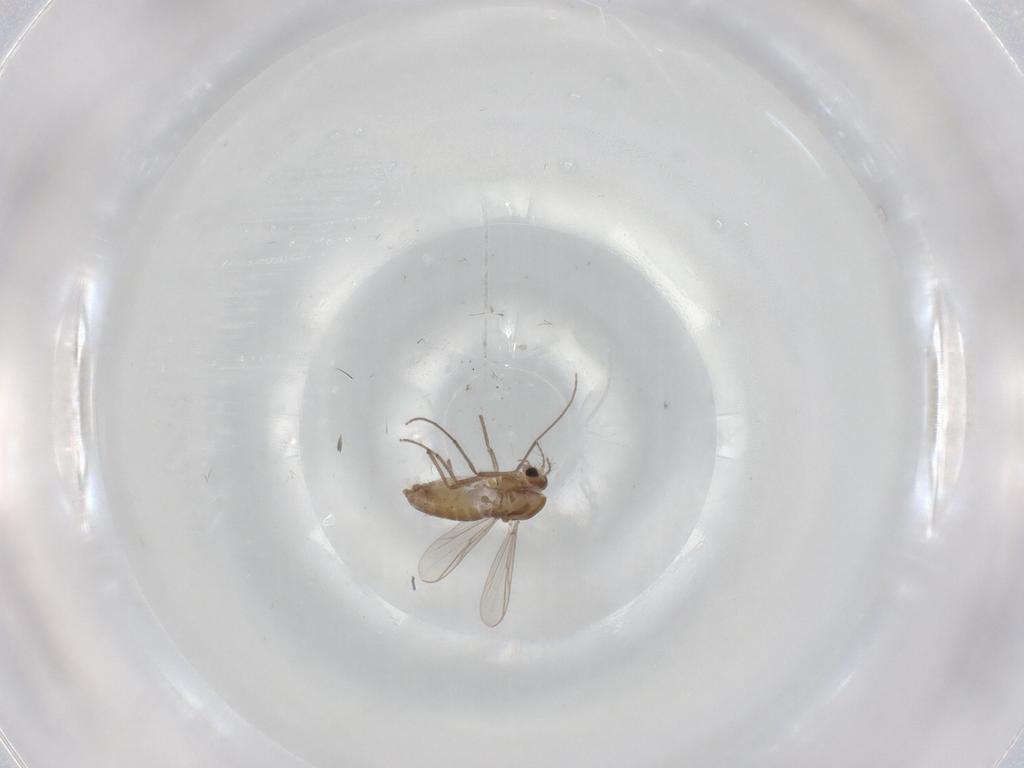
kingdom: Animalia
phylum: Arthropoda
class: Insecta
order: Diptera
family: Chironomidae
